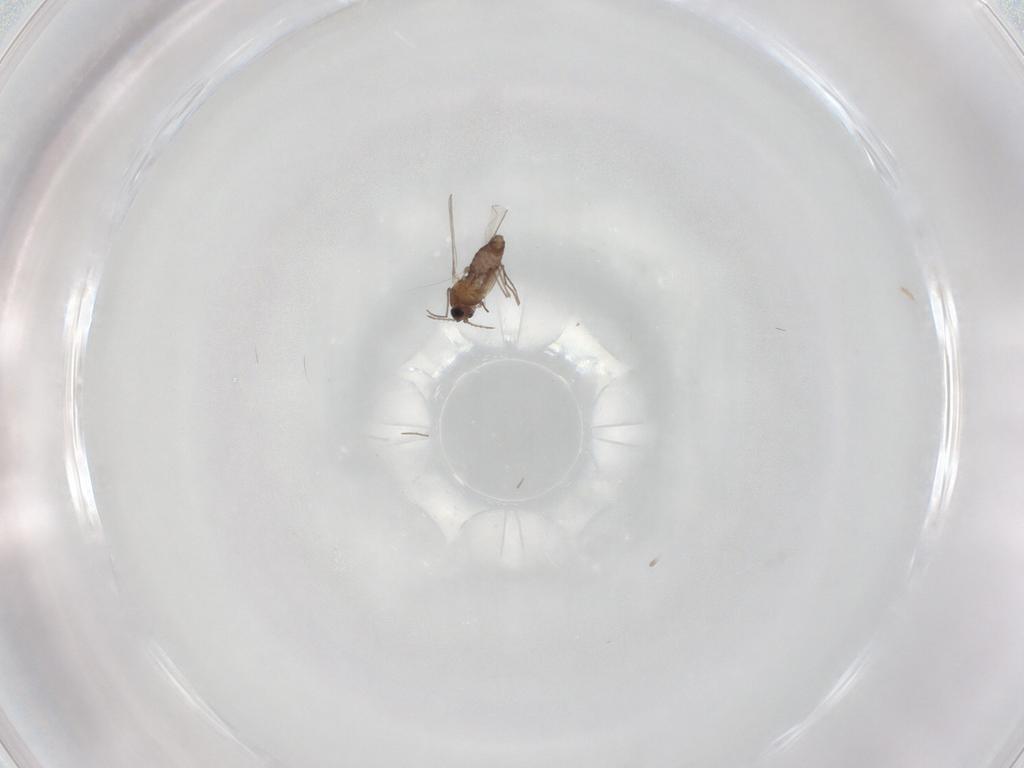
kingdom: Animalia
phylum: Arthropoda
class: Insecta
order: Diptera
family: Chironomidae
